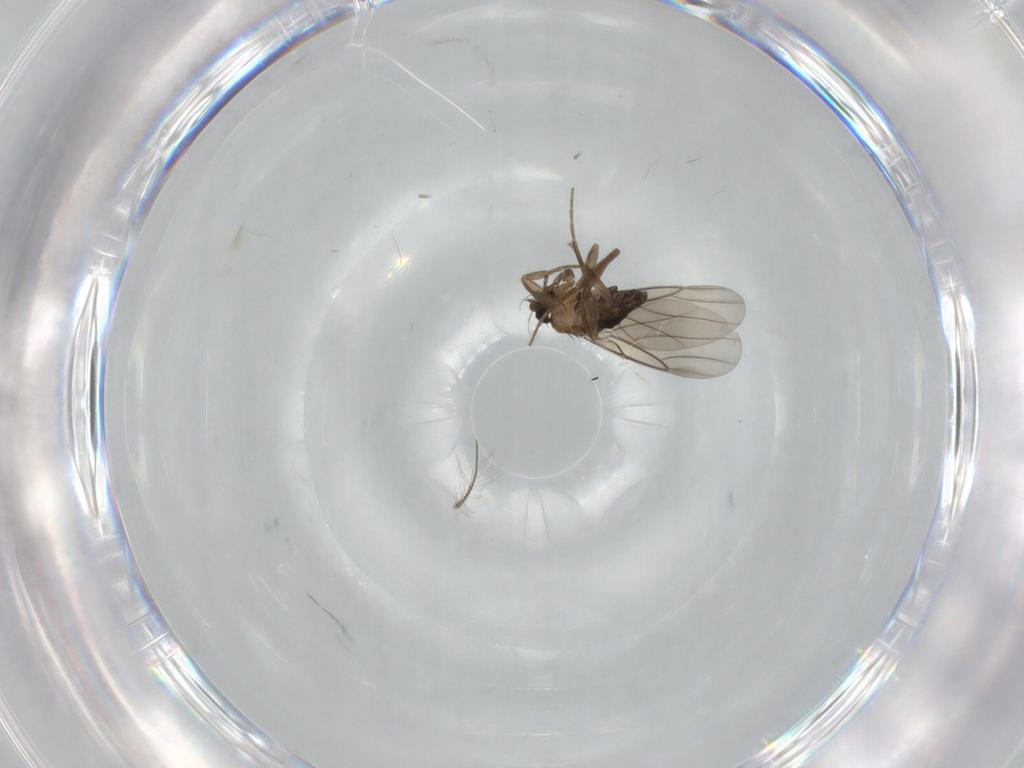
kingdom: Animalia
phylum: Arthropoda
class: Insecta
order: Diptera
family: Phoridae
